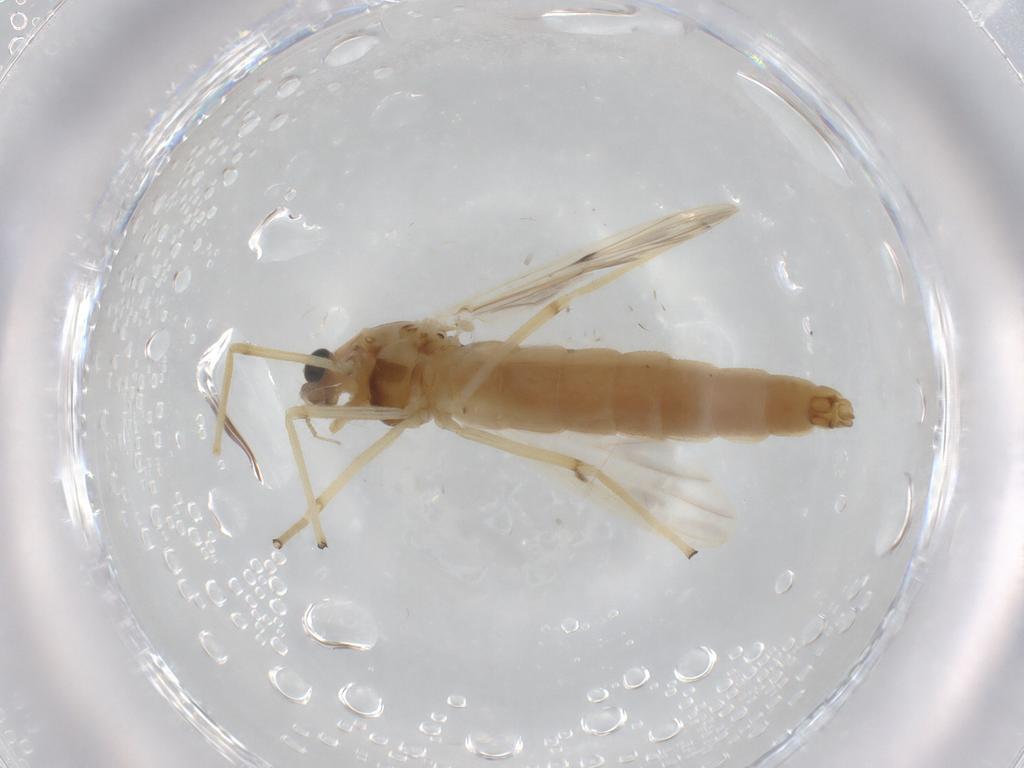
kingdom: Animalia
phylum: Arthropoda
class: Insecta
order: Diptera
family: Chironomidae
